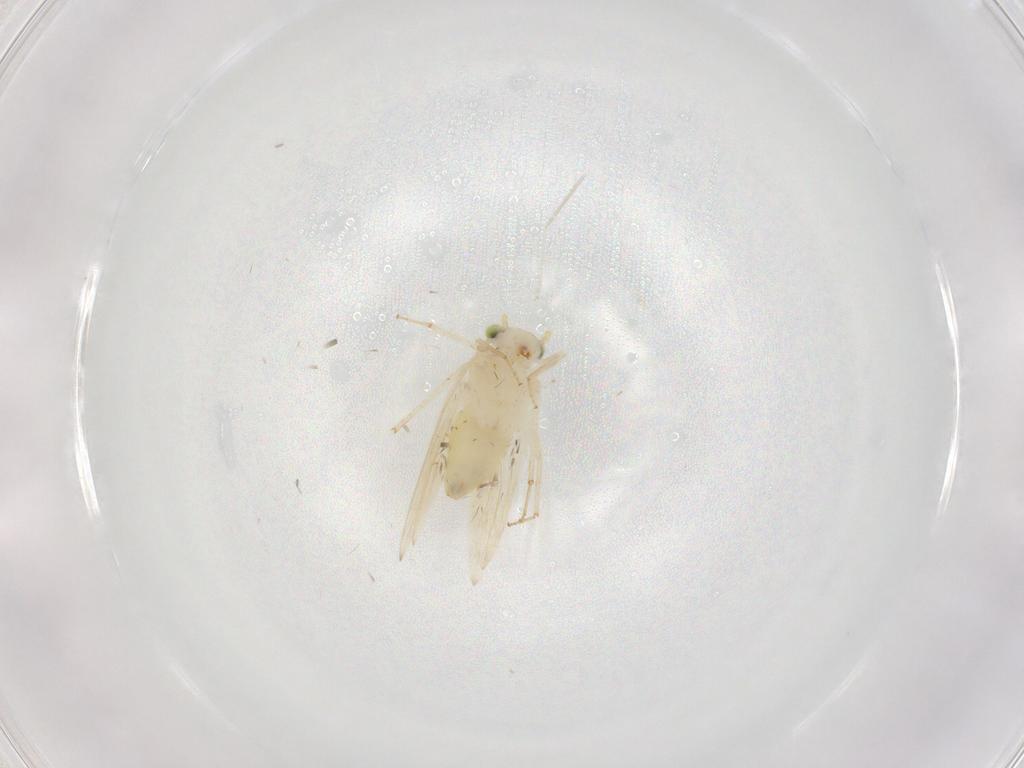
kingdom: Animalia
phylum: Arthropoda
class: Insecta
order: Psocodea
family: Lepidopsocidae
